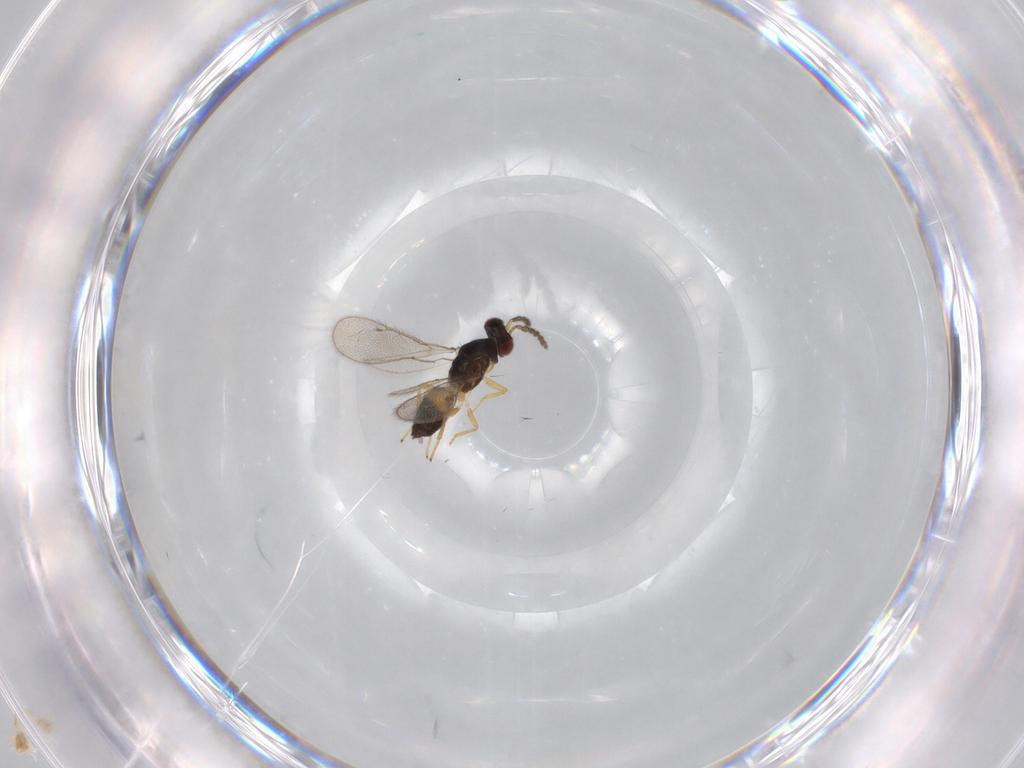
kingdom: Animalia
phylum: Arthropoda
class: Insecta
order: Hymenoptera
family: Eulophidae
